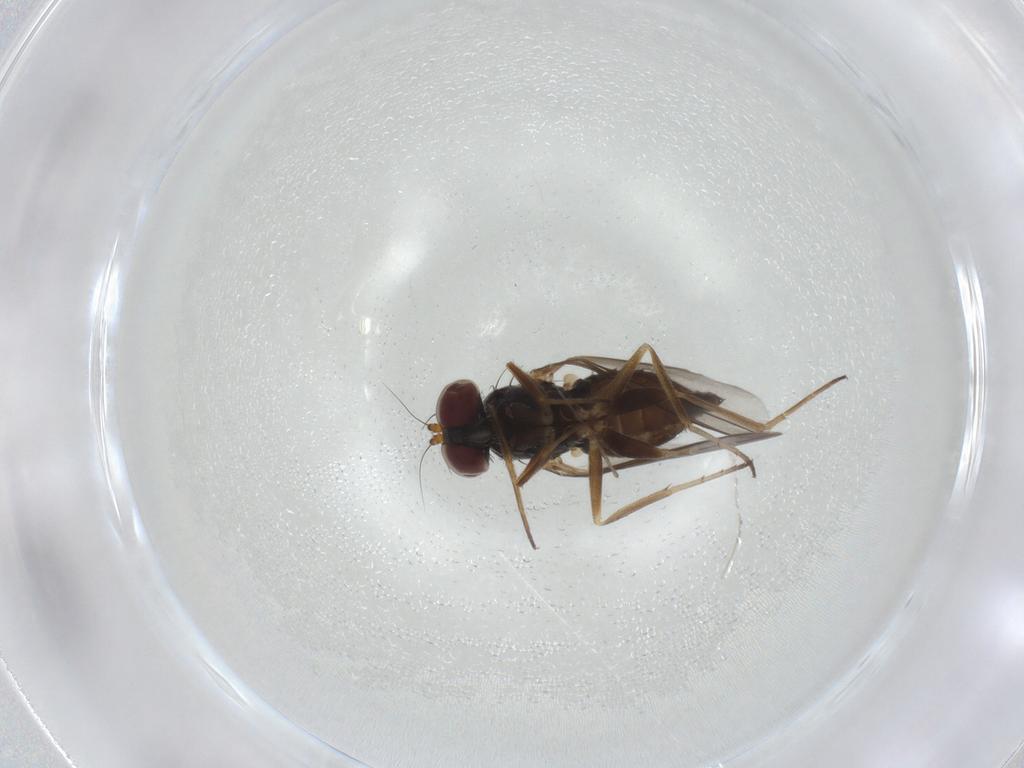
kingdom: Animalia
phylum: Arthropoda
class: Insecta
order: Diptera
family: Dolichopodidae
